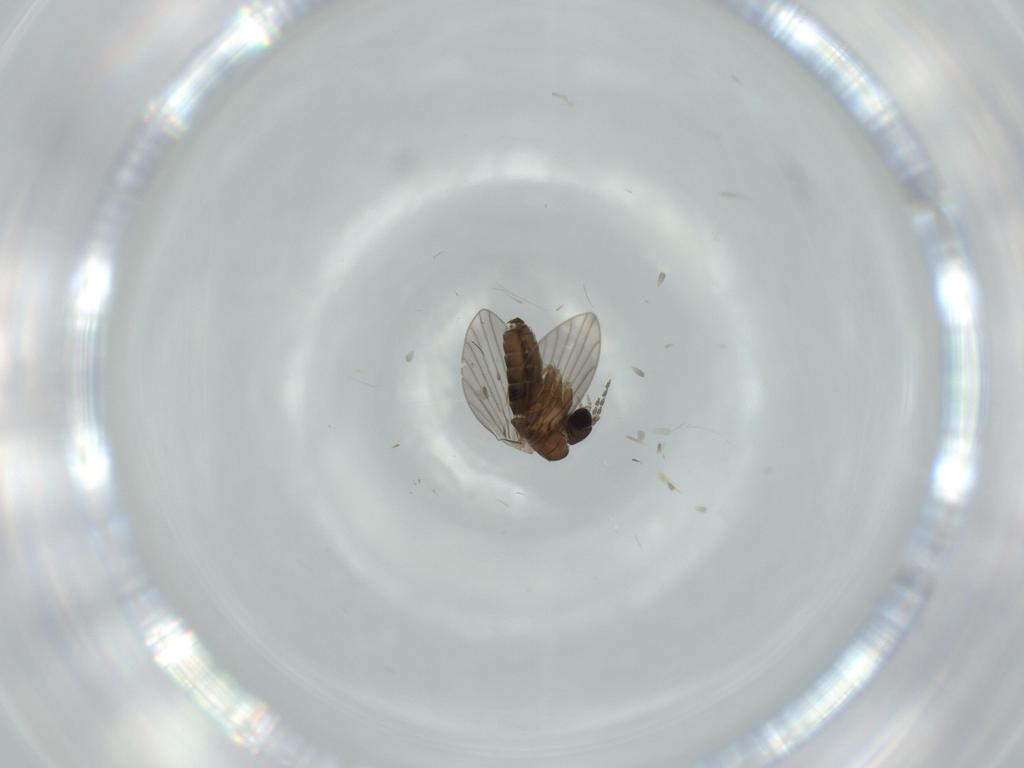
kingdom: Animalia
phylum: Arthropoda
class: Insecta
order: Diptera
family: Psychodidae
